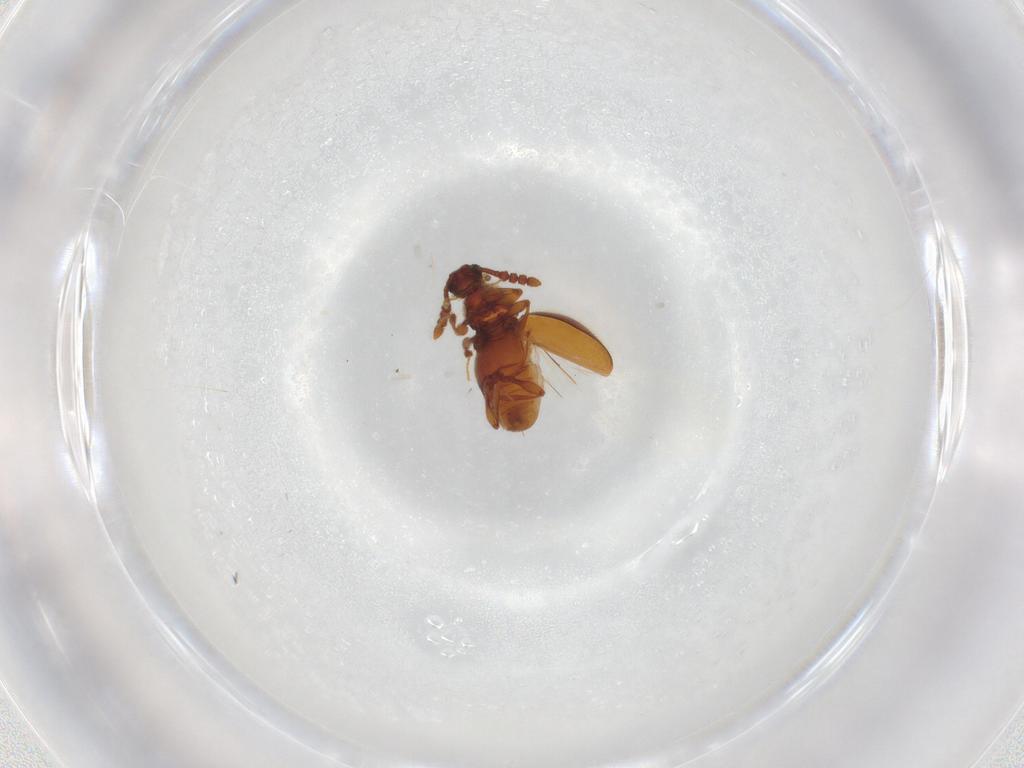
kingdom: Animalia
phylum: Arthropoda
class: Insecta
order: Coleoptera
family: Staphylinidae
